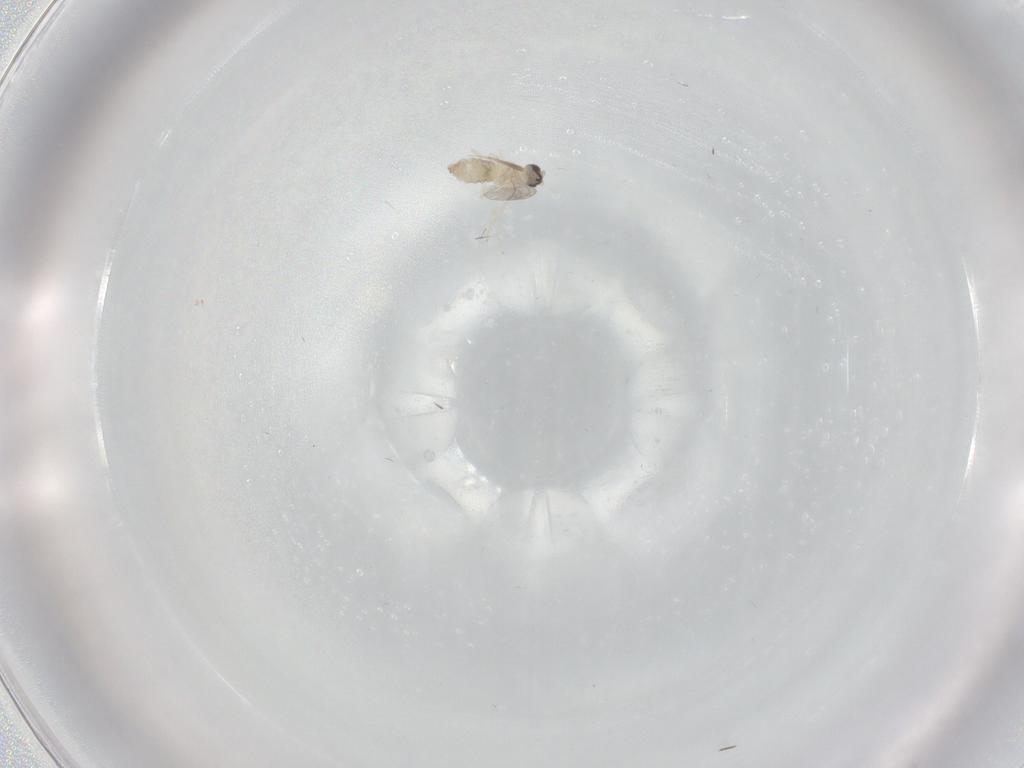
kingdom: Animalia
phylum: Arthropoda
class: Insecta
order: Diptera
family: Cecidomyiidae
